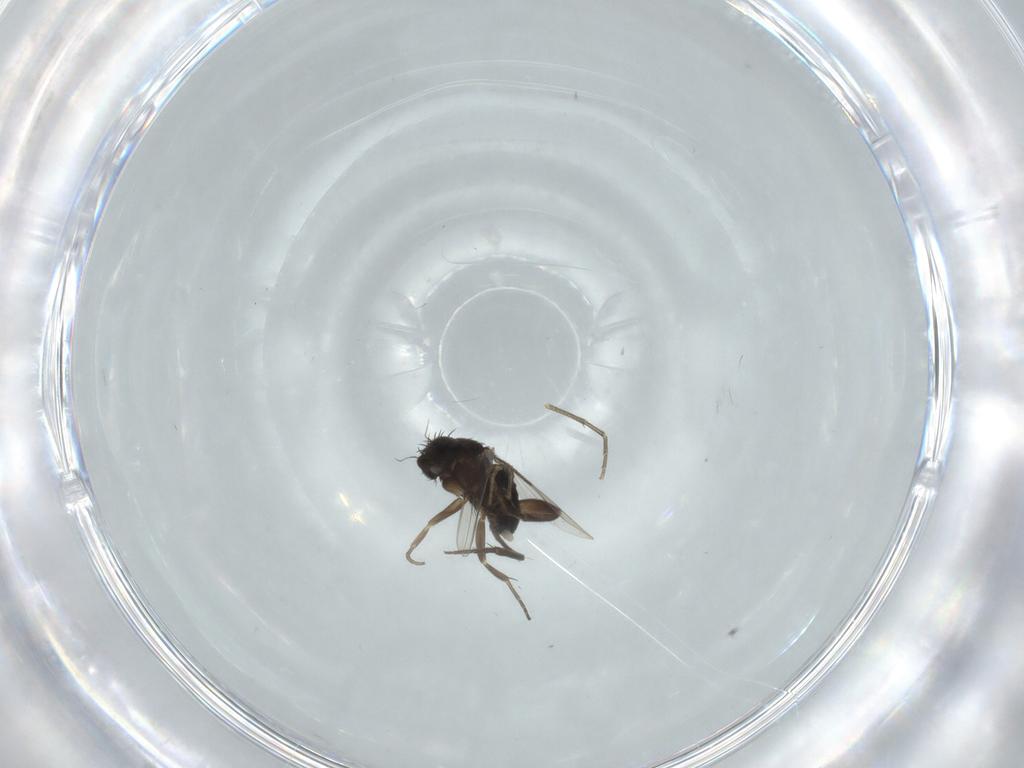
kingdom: Animalia
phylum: Arthropoda
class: Insecta
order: Diptera
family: Phoridae
